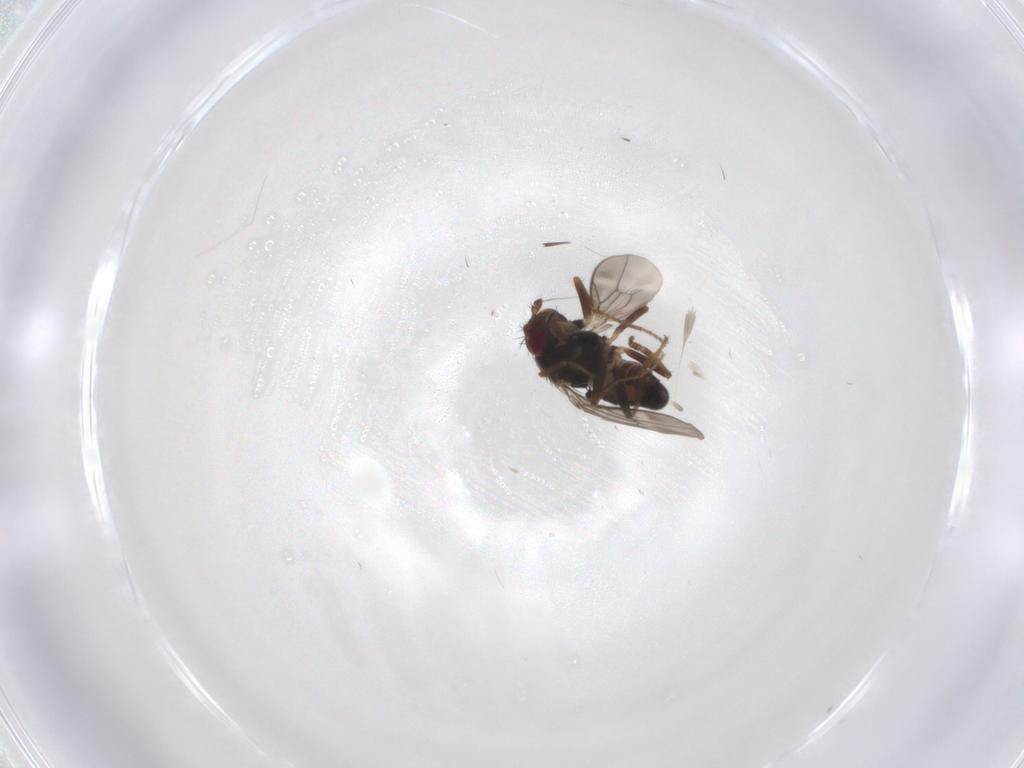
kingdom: Animalia
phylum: Arthropoda
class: Insecta
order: Diptera
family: Sphaeroceridae
